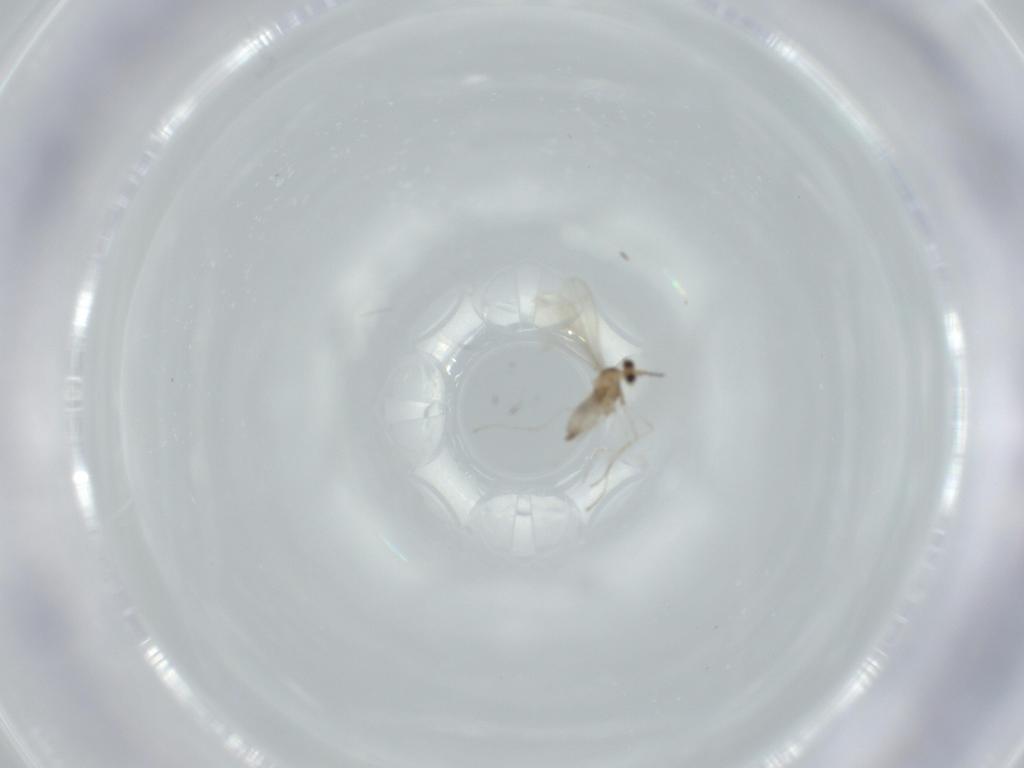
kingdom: Animalia
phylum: Arthropoda
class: Insecta
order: Diptera
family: Cecidomyiidae
